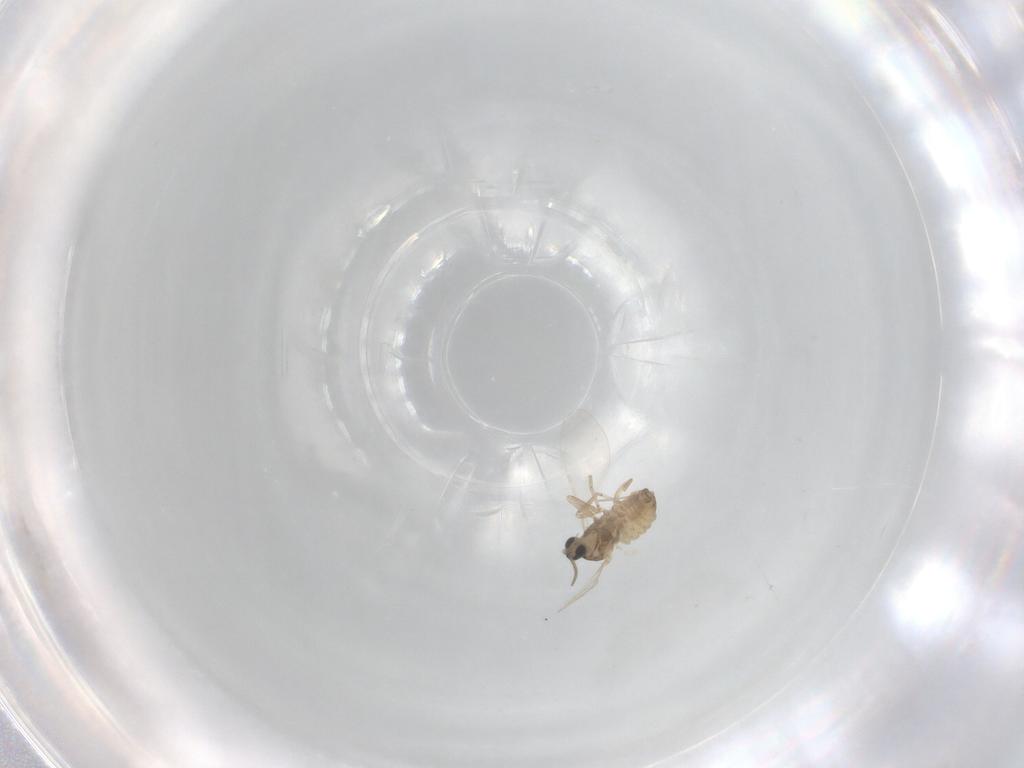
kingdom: Animalia
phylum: Arthropoda
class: Insecta
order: Diptera
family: Cecidomyiidae
